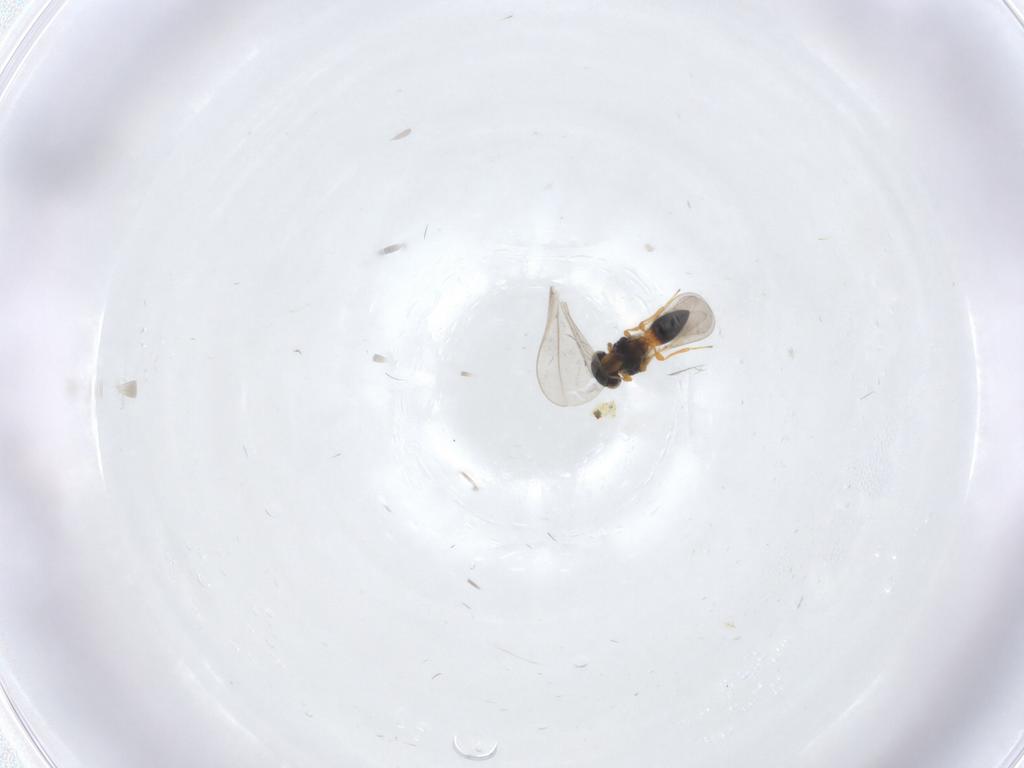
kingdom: Animalia
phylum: Arthropoda
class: Insecta
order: Hymenoptera
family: Platygastridae
